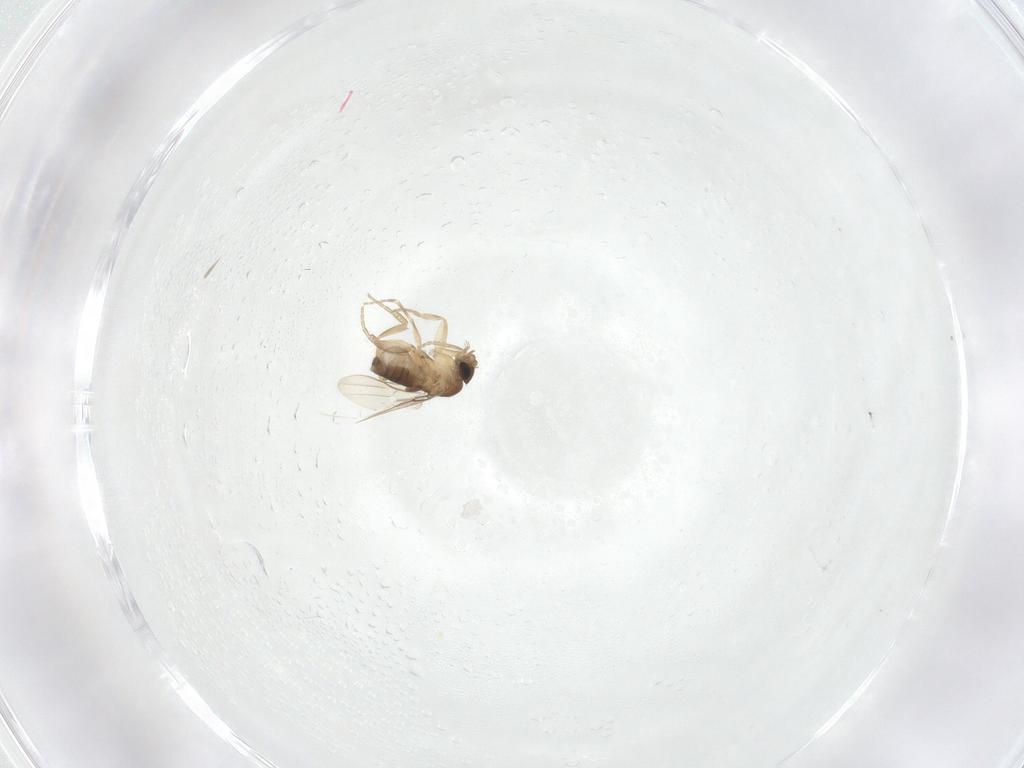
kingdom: Animalia
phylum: Arthropoda
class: Insecta
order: Diptera
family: Phoridae
